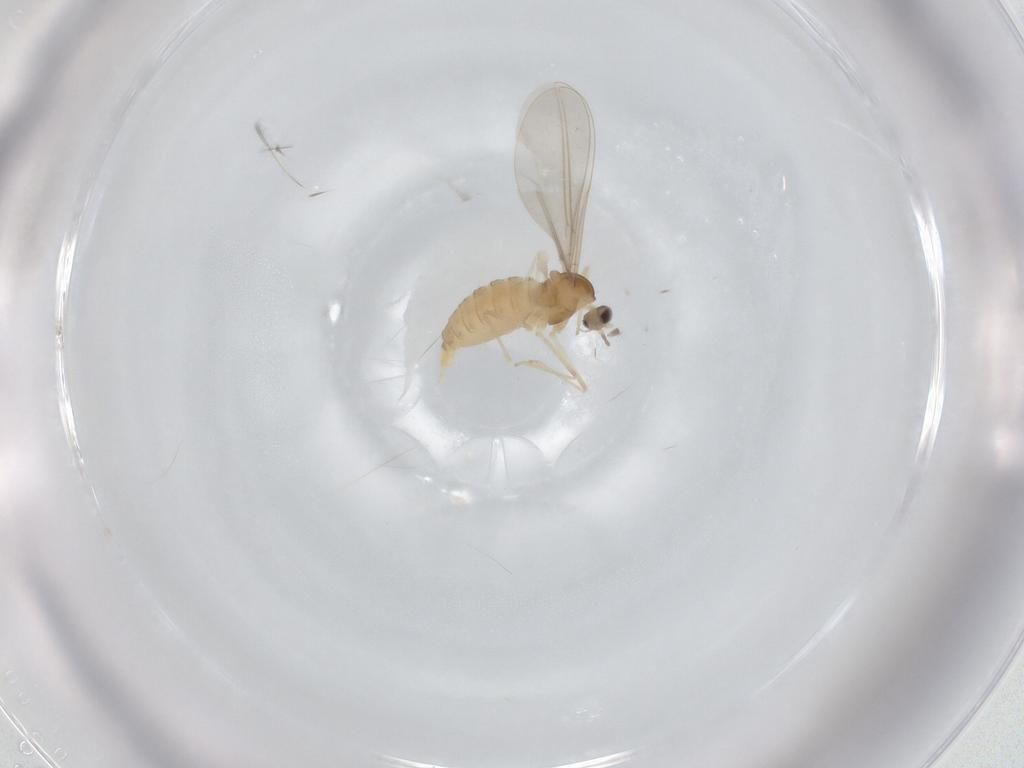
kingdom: Animalia
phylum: Arthropoda
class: Insecta
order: Diptera
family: Cecidomyiidae
